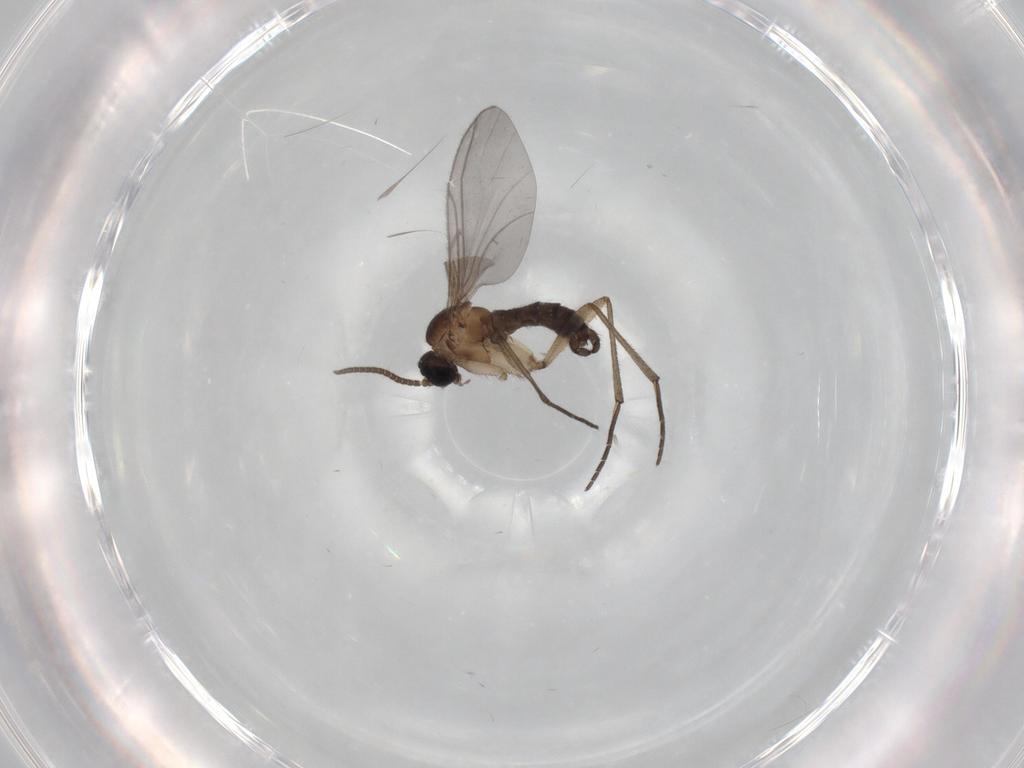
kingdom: Animalia
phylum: Arthropoda
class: Insecta
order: Diptera
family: Sciaridae
